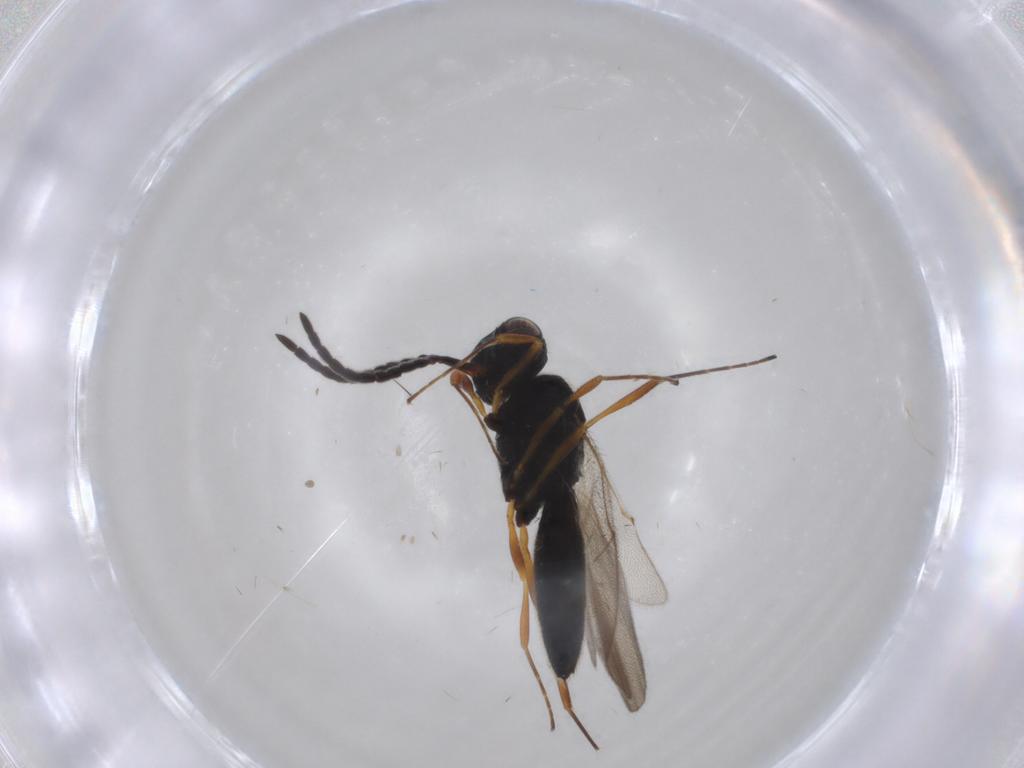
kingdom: Animalia
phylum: Arthropoda
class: Insecta
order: Hymenoptera
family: Scelionidae
